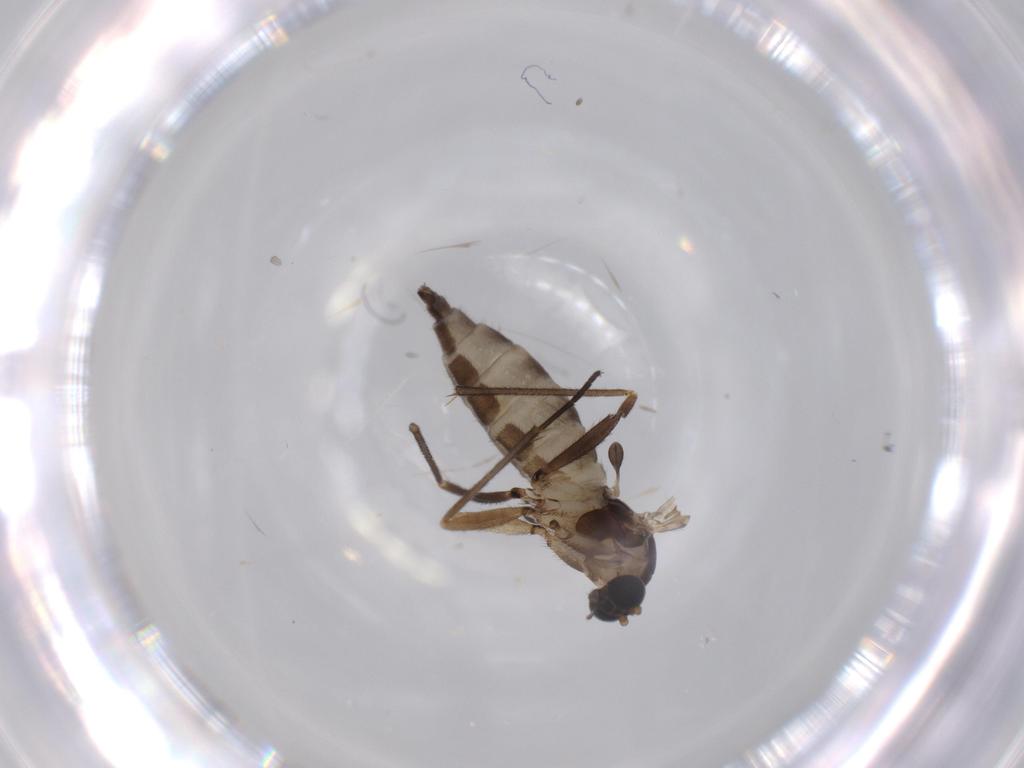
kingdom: Animalia
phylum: Arthropoda
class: Insecta
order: Diptera
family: Sciaridae
